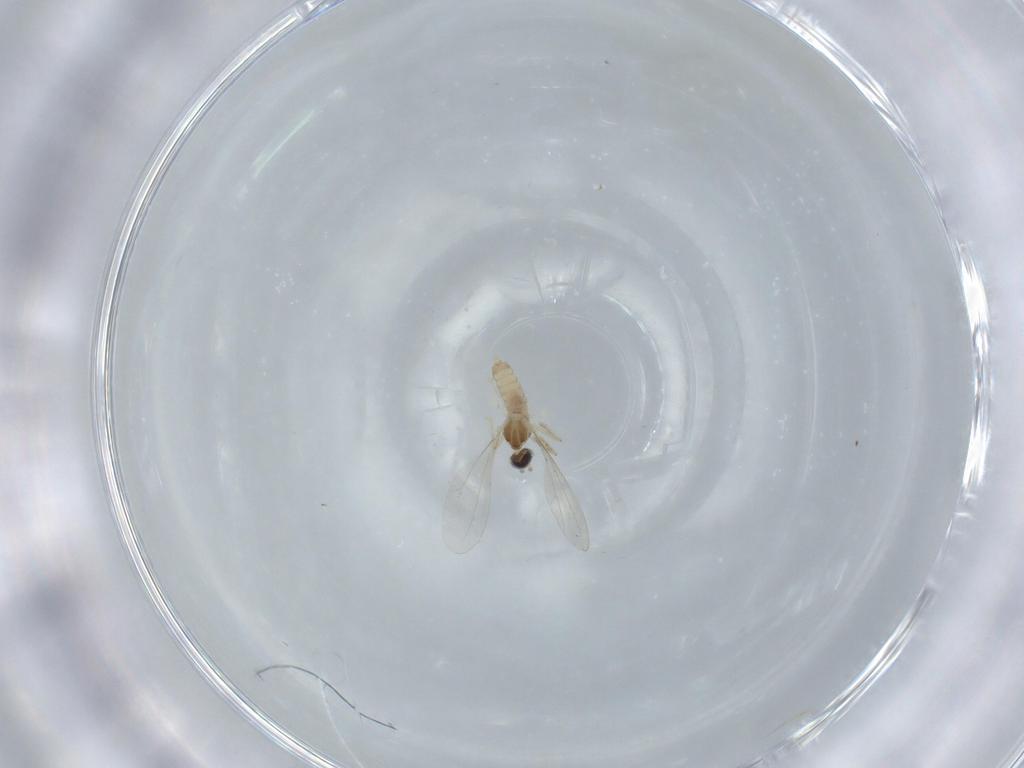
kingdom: Animalia
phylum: Arthropoda
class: Insecta
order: Diptera
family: Cecidomyiidae
